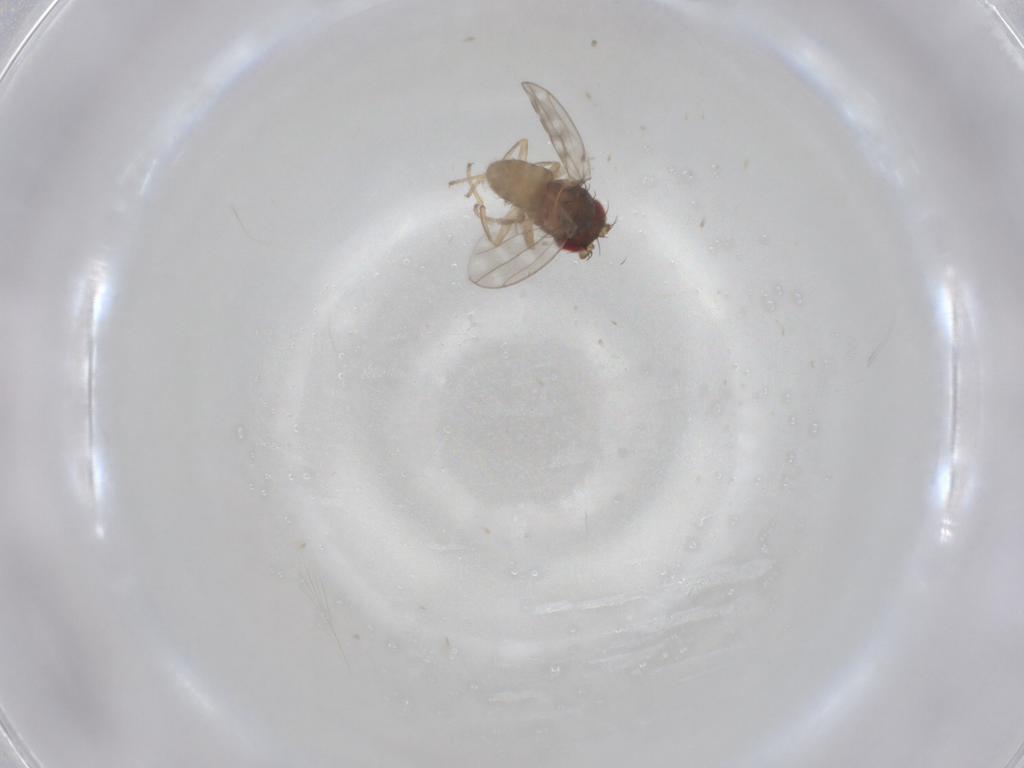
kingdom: Animalia
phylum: Arthropoda
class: Insecta
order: Diptera
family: Ephydridae
